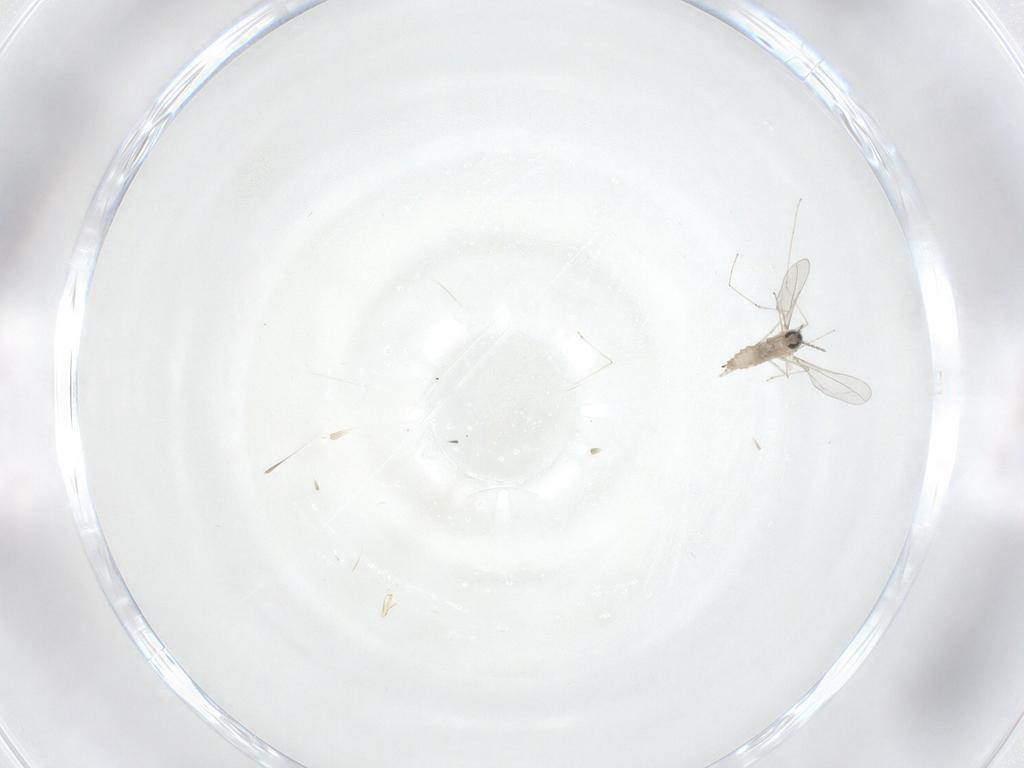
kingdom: Animalia
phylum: Arthropoda
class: Insecta
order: Diptera
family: Cecidomyiidae
